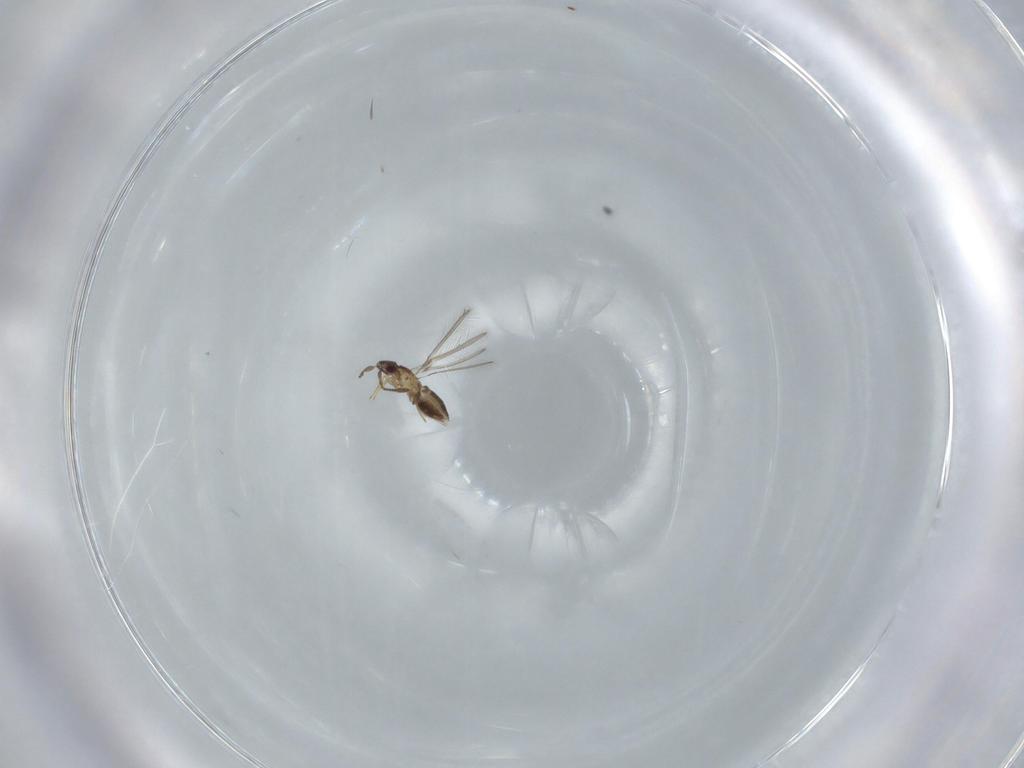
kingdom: Animalia
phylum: Arthropoda
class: Insecta
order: Hymenoptera
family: Mymaridae
